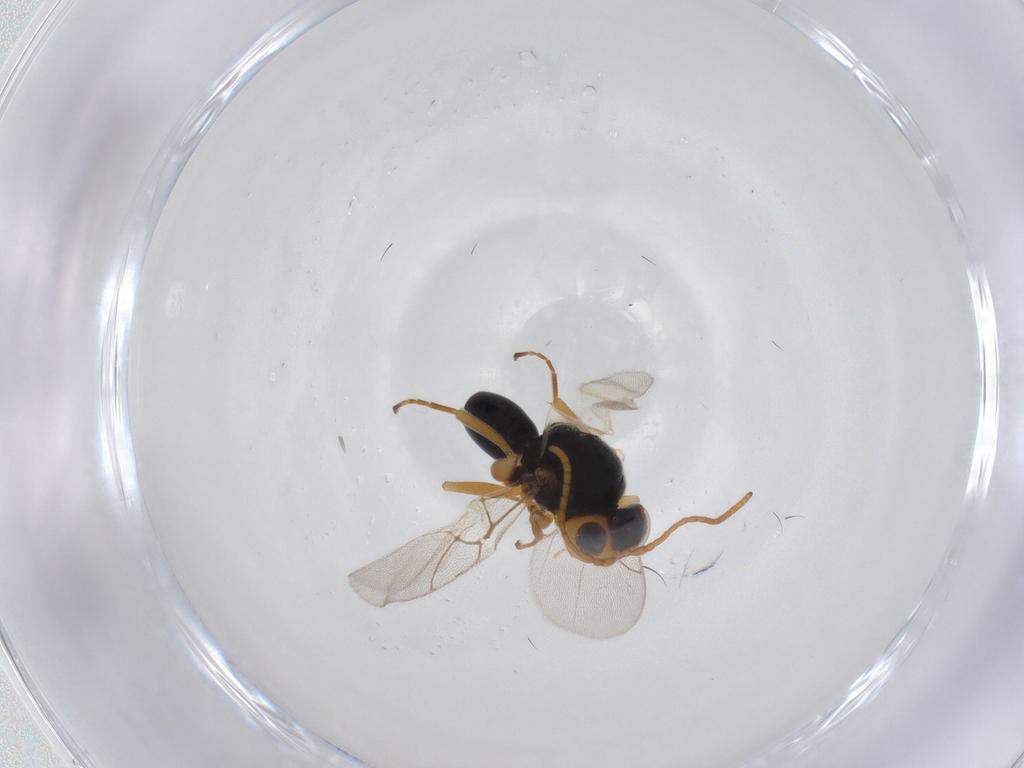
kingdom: Animalia
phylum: Arthropoda
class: Insecta
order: Hymenoptera
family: Cynipidae
